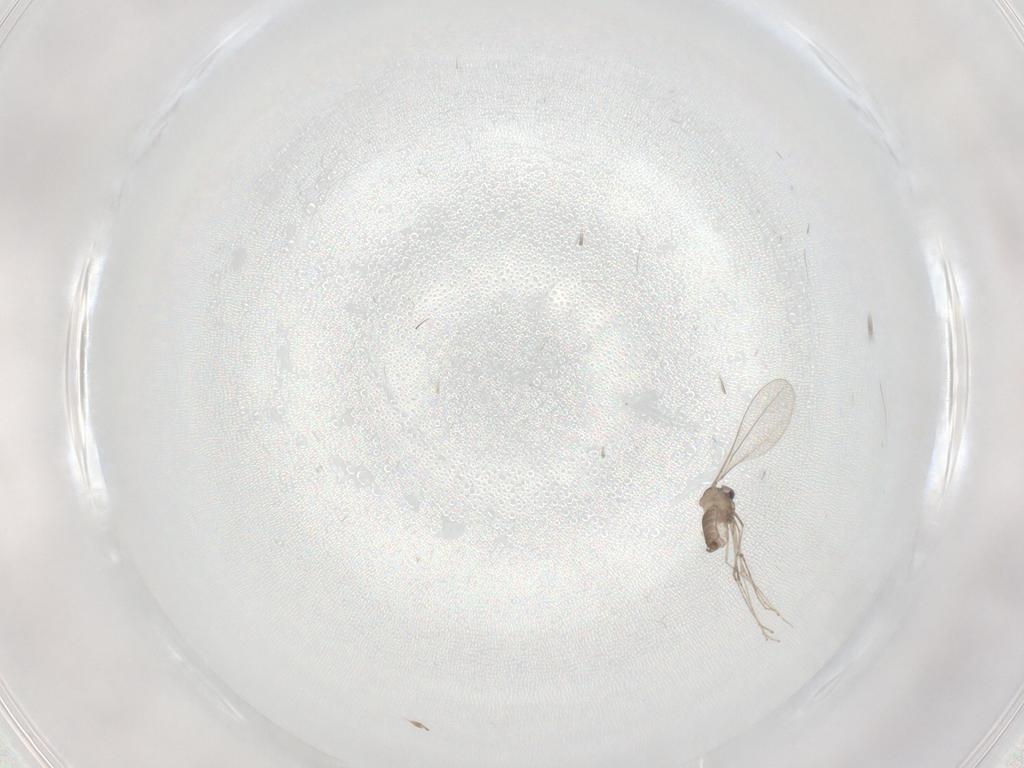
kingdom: Animalia
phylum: Arthropoda
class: Insecta
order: Diptera
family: Cecidomyiidae
